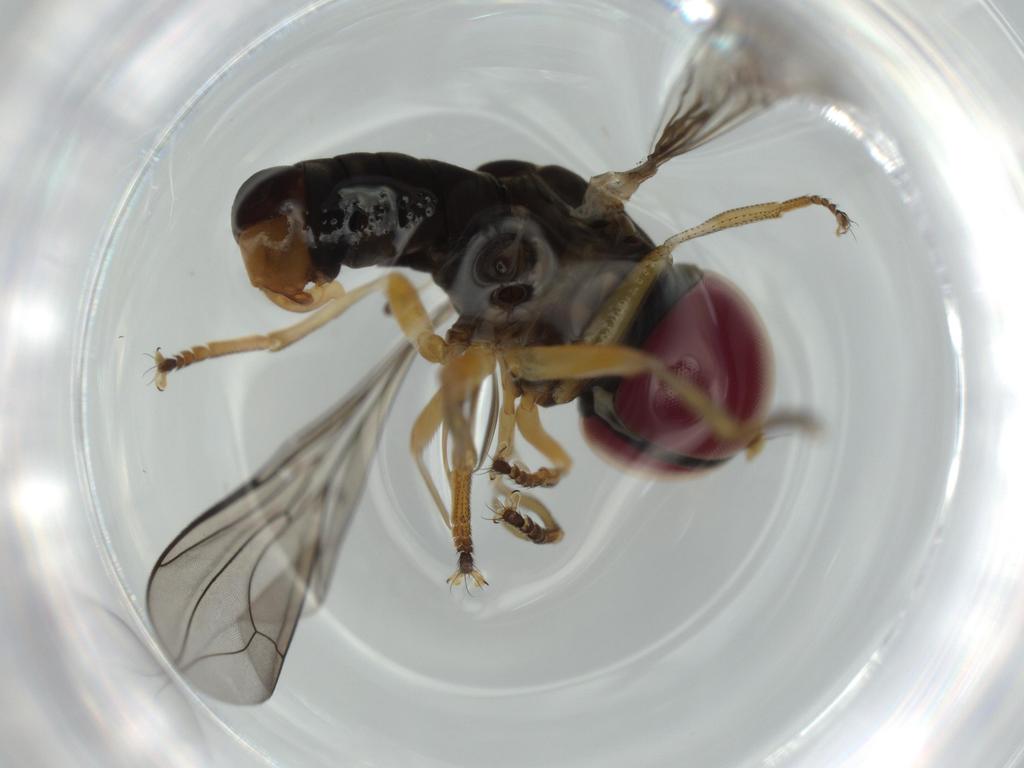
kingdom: Animalia
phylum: Arthropoda
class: Insecta
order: Diptera
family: Pipunculidae
